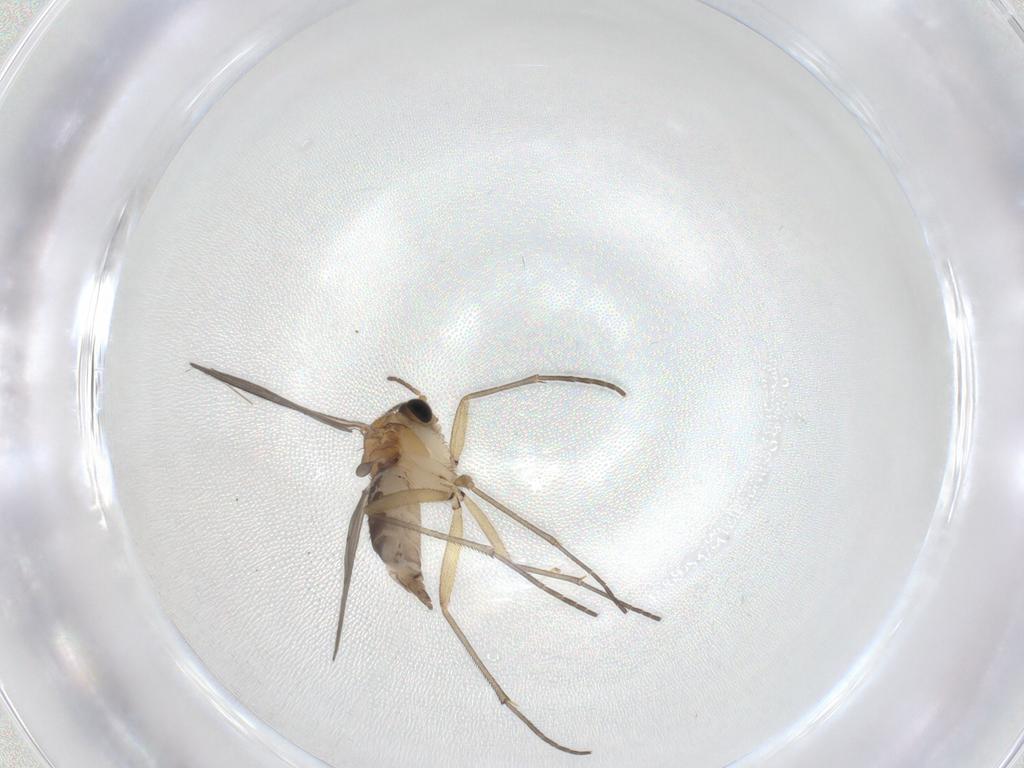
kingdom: Animalia
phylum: Arthropoda
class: Insecta
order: Diptera
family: Cecidomyiidae
